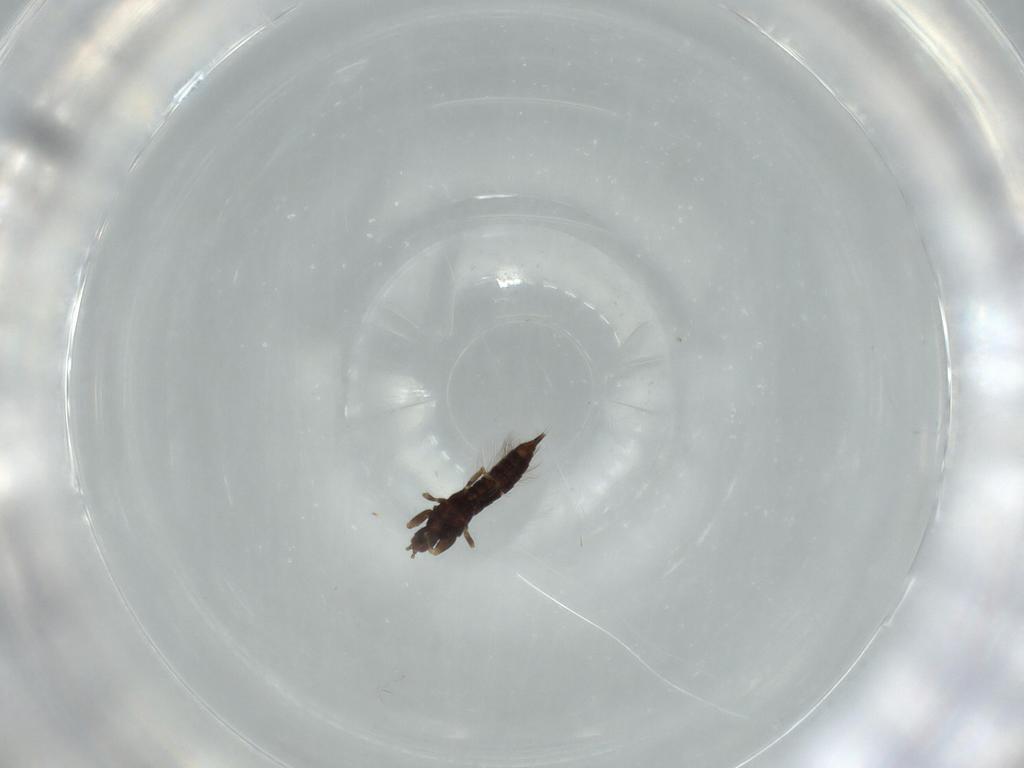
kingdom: Animalia
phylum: Arthropoda
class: Insecta
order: Thysanoptera
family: Phlaeothripidae
